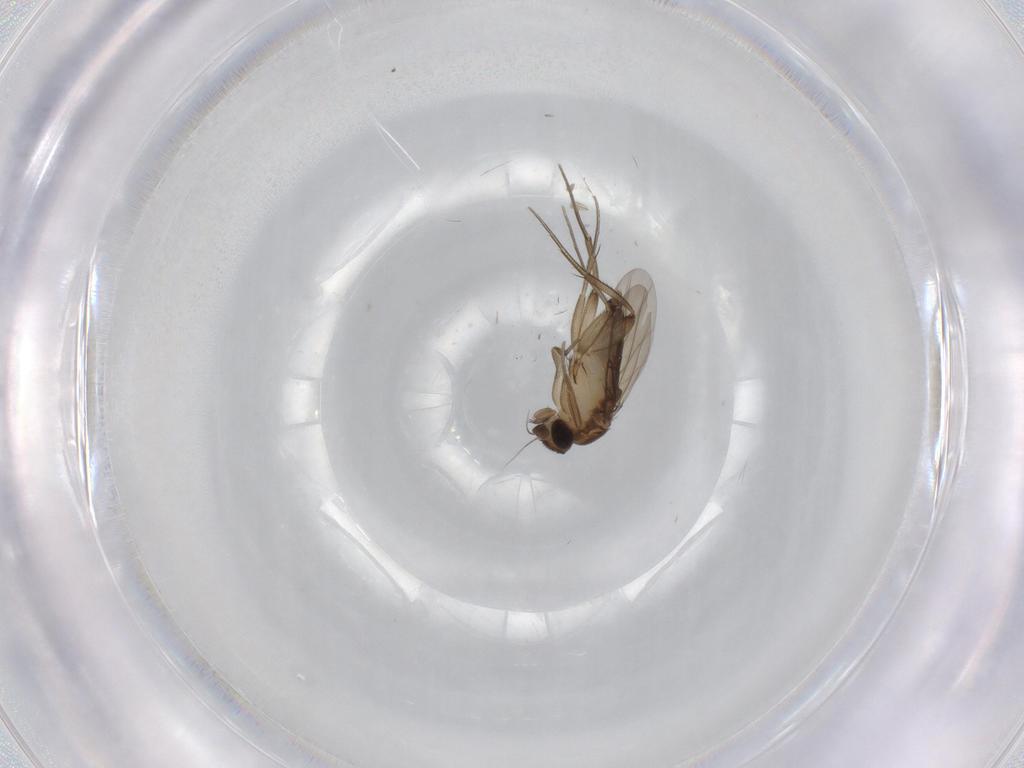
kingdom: Animalia
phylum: Arthropoda
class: Insecta
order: Diptera
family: Phoridae
